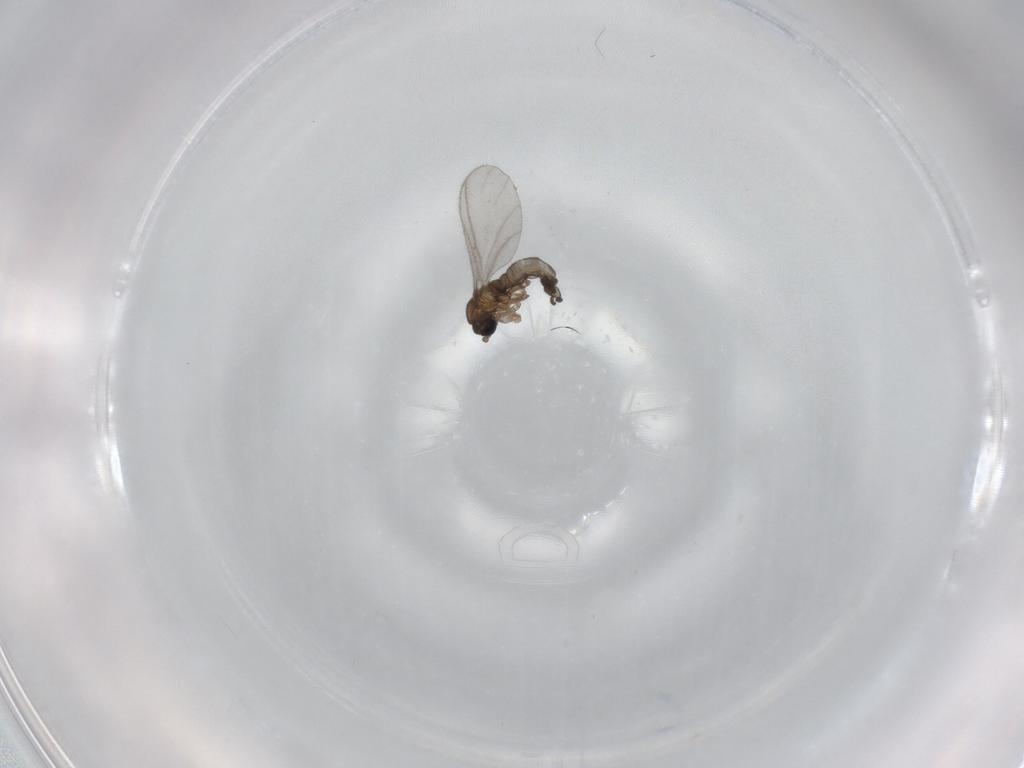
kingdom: Animalia
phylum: Arthropoda
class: Insecta
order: Diptera
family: Sciaridae
